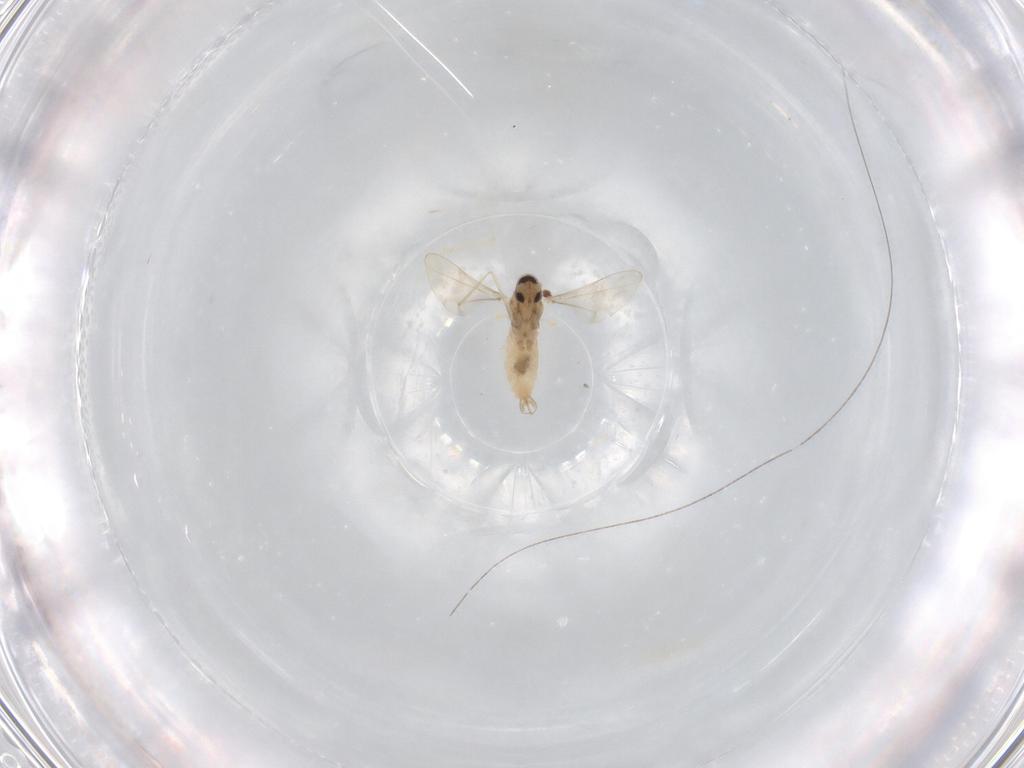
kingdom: Animalia
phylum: Arthropoda
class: Insecta
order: Diptera
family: Cecidomyiidae
